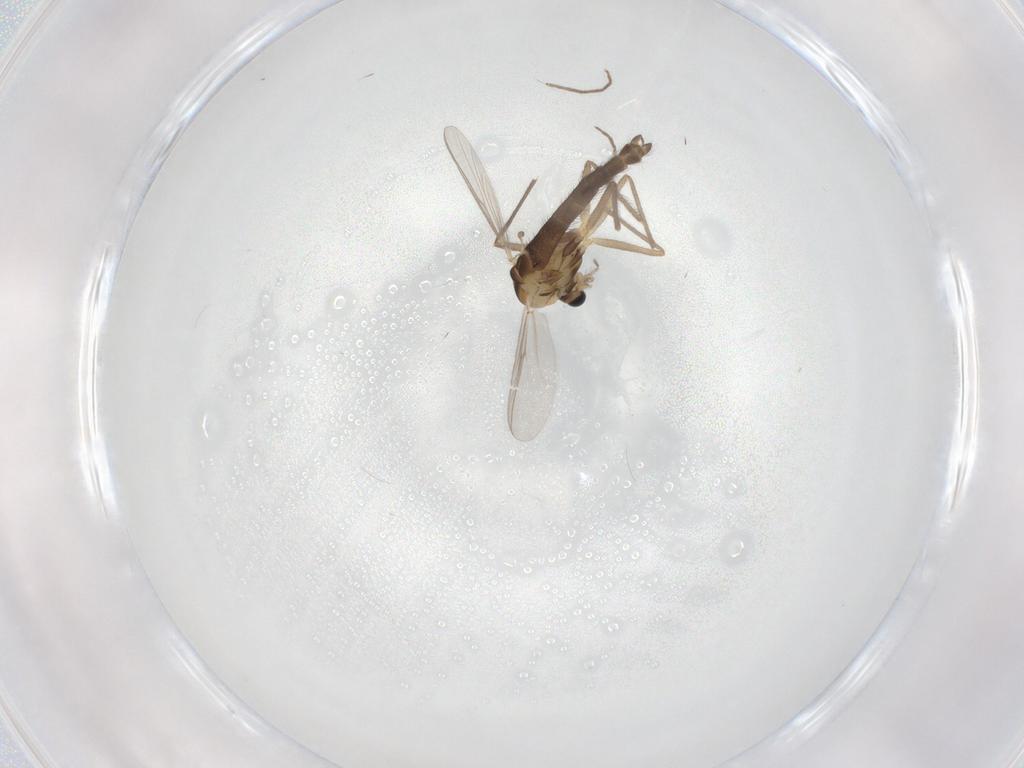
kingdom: Animalia
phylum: Arthropoda
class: Insecta
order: Diptera
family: Chironomidae
